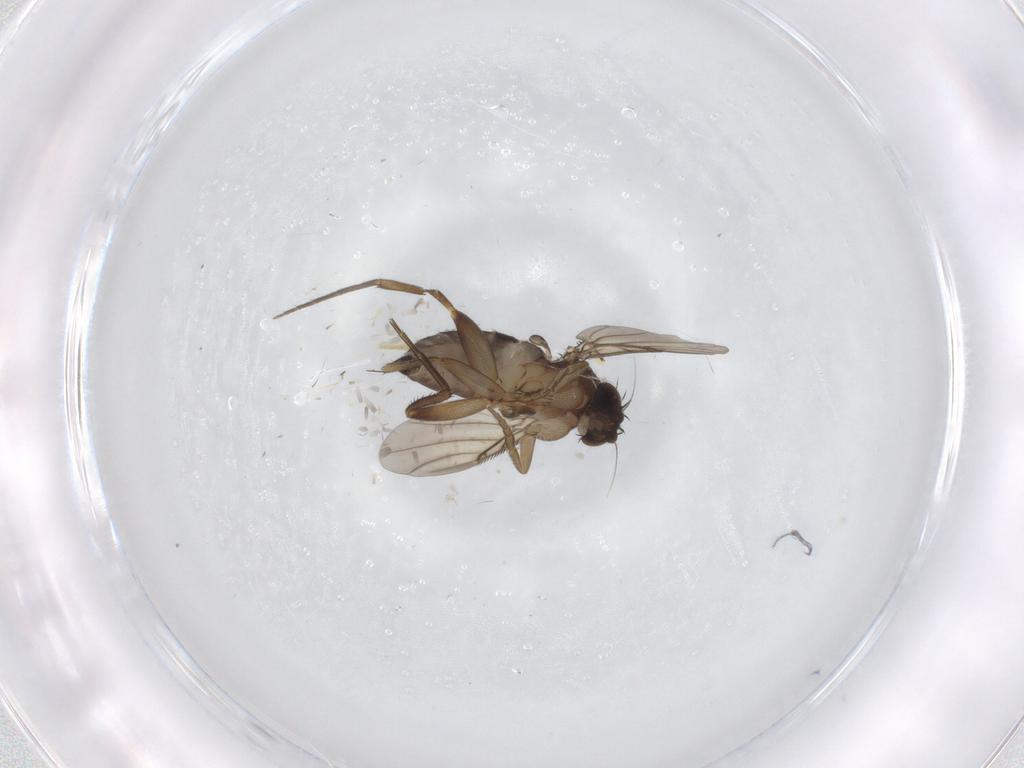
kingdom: Animalia
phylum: Arthropoda
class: Insecta
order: Diptera
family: Phoridae
